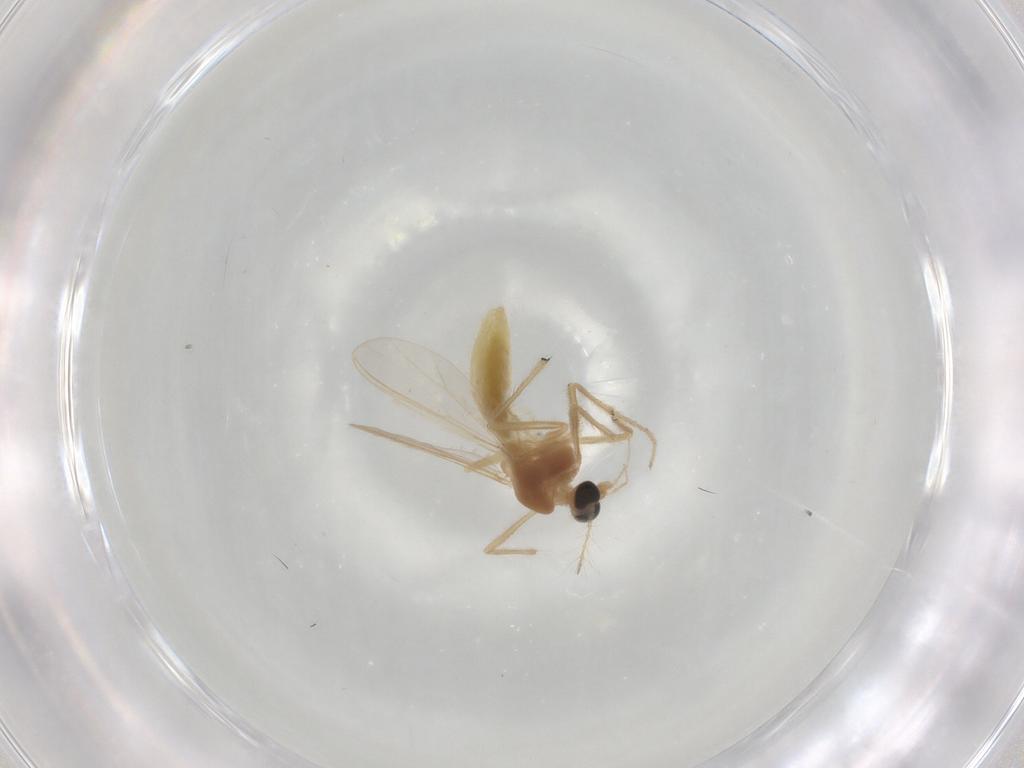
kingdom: Animalia
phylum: Arthropoda
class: Insecta
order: Diptera
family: Chironomidae
